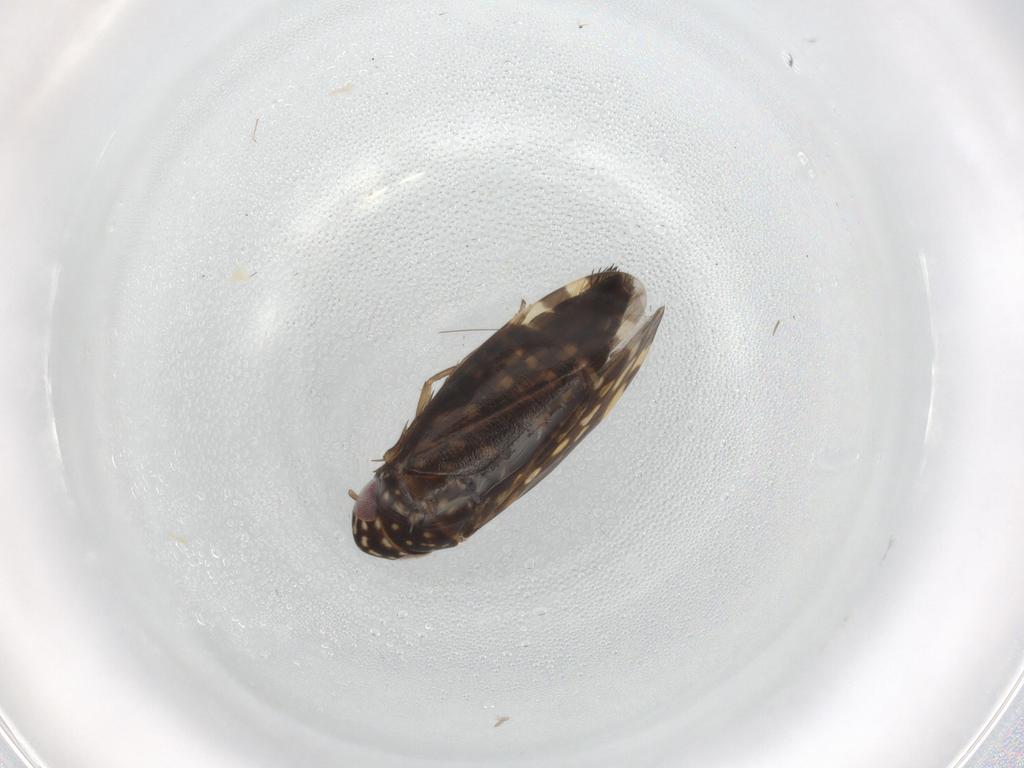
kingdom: Animalia
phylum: Arthropoda
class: Insecta
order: Hemiptera
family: Cicadellidae
